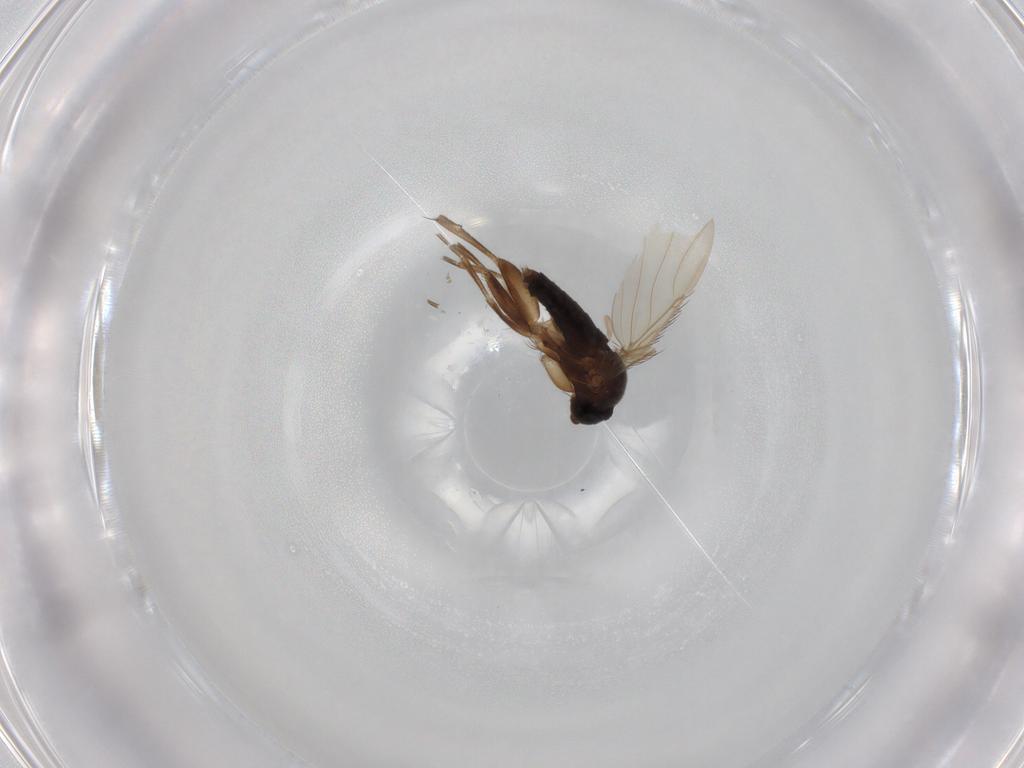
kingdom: Animalia
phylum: Arthropoda
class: Insecta
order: Diptera
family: Phoridae
